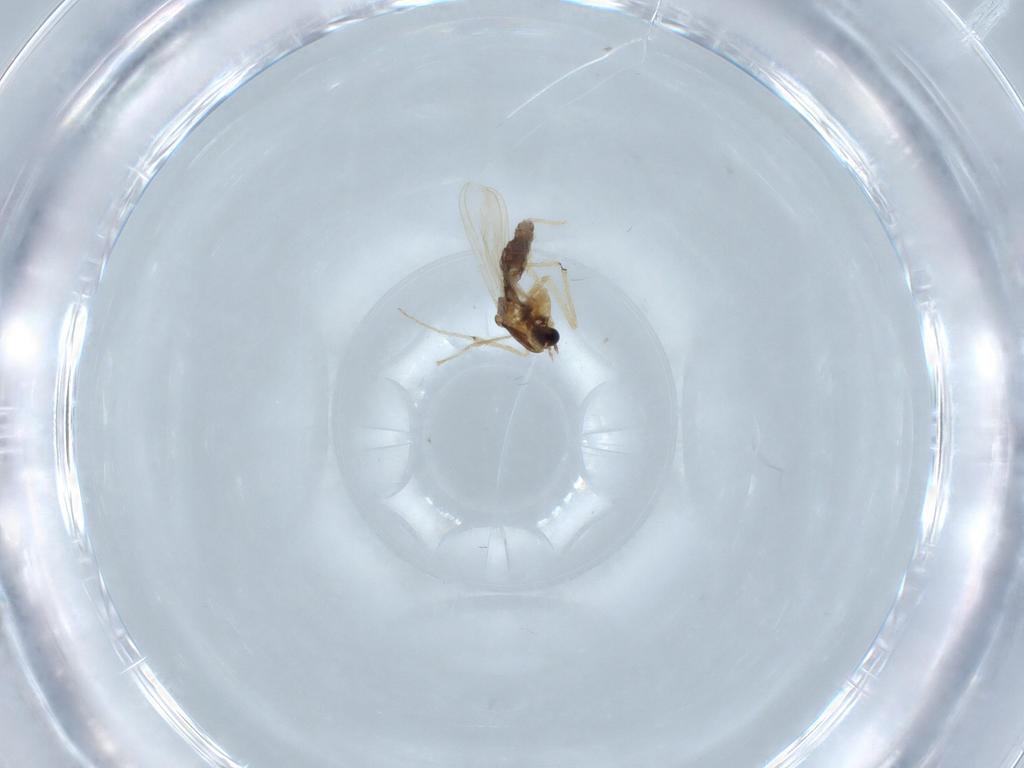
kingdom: Animalia
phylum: Arthropoda
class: Insecta
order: Diptera
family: Chironomidae
